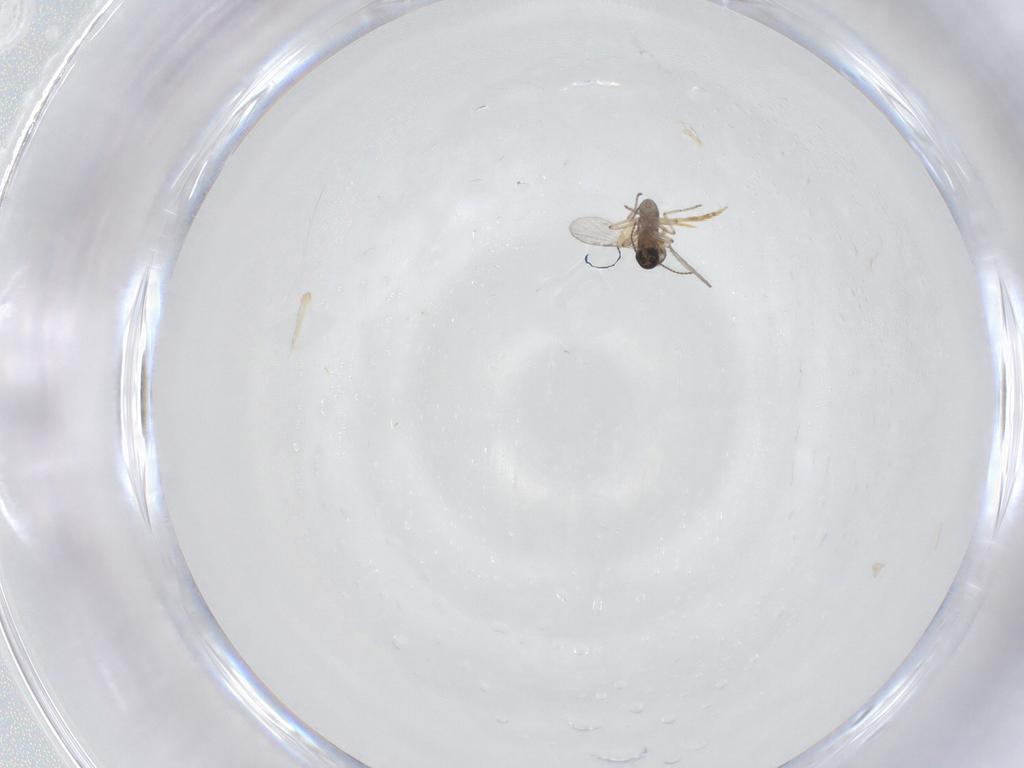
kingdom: Animalia
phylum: Arthropoda
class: Insecta
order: Diptera
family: Ceratopogonidae
